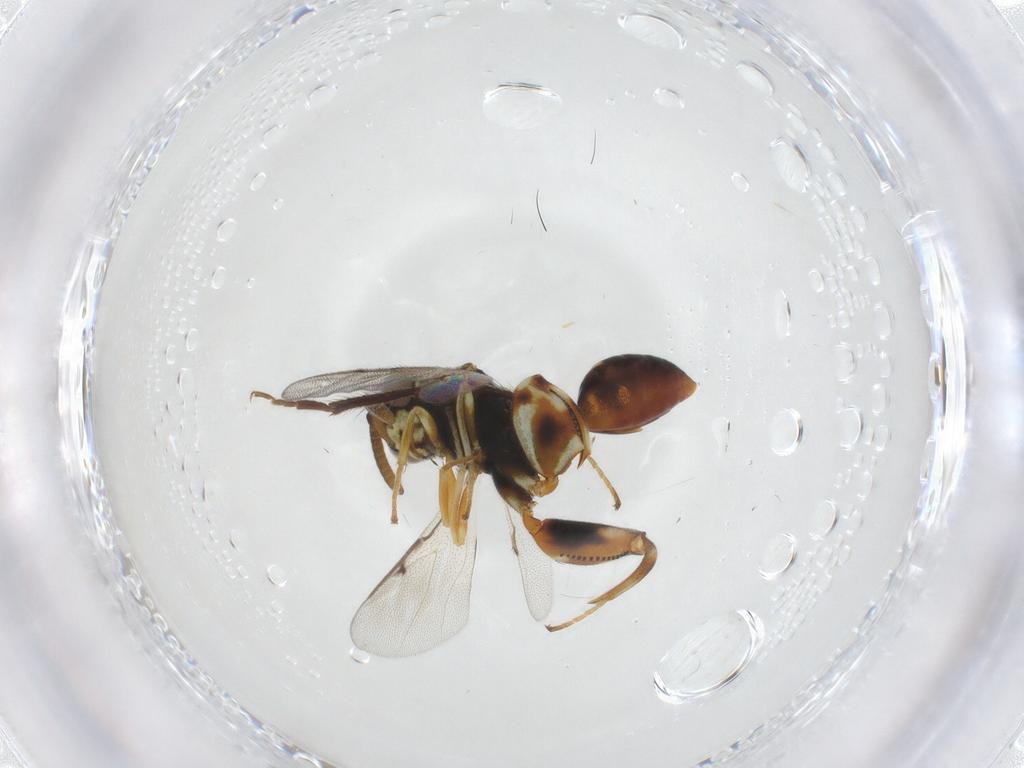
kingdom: Animalia
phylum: Arthropoda
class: Insecta
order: Hymenoptera
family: Chalcididae
